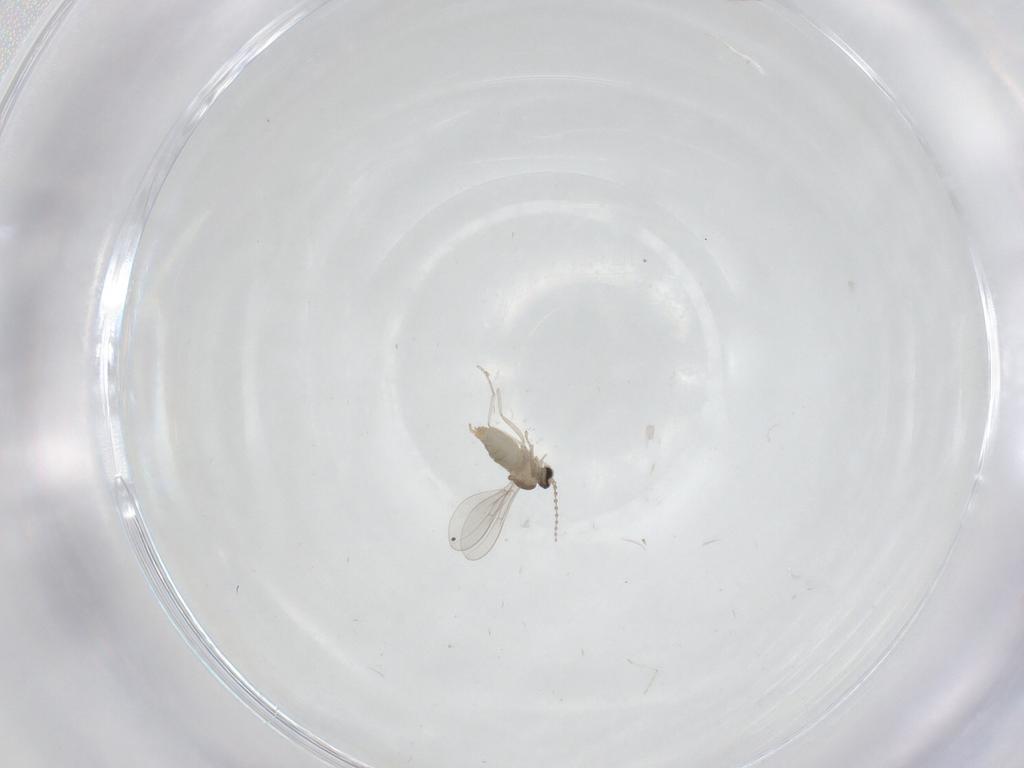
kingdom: Animalia
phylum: Arthropoda
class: Insecta
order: Diptera
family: Cecidomyiidae
